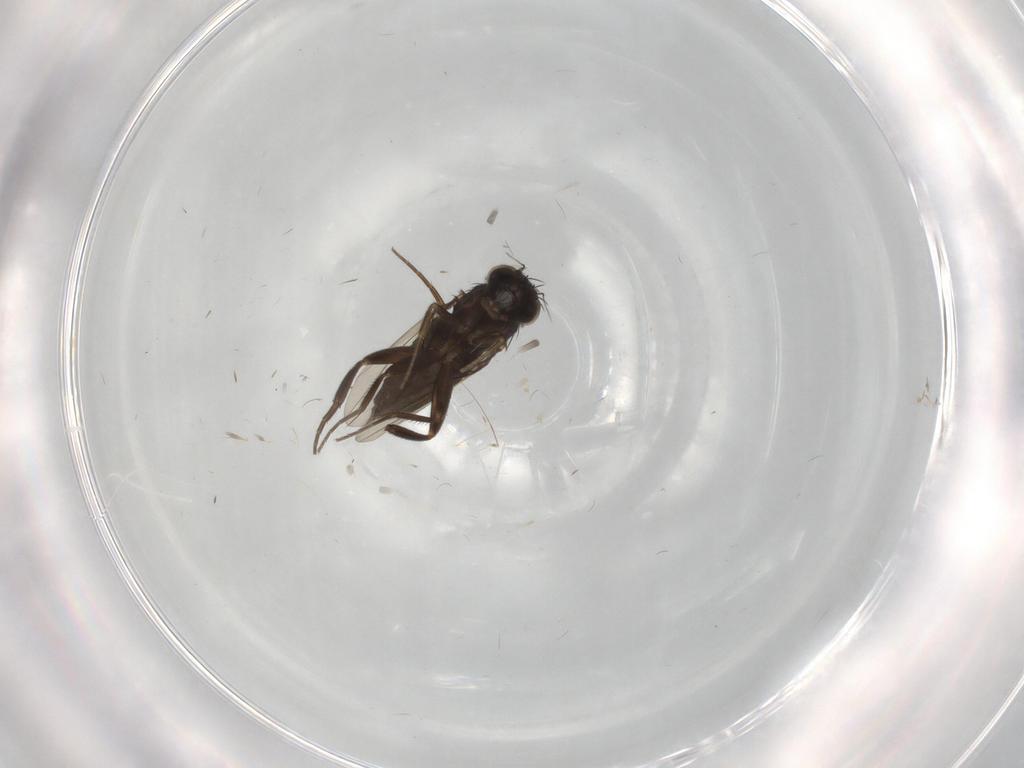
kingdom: Animalia
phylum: Arthropoda
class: Insecta
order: Diptera
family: Phoridae
